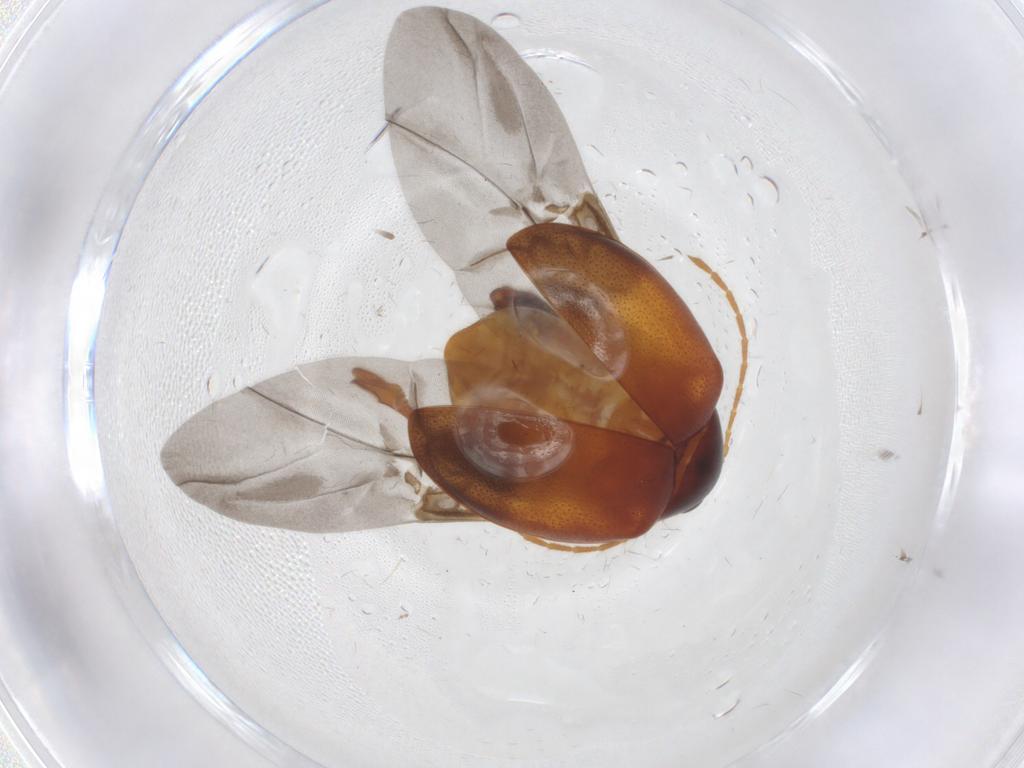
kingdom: Animalia
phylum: Arthropoda
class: Insecta
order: Coleoptera
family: Chrysomelidae
